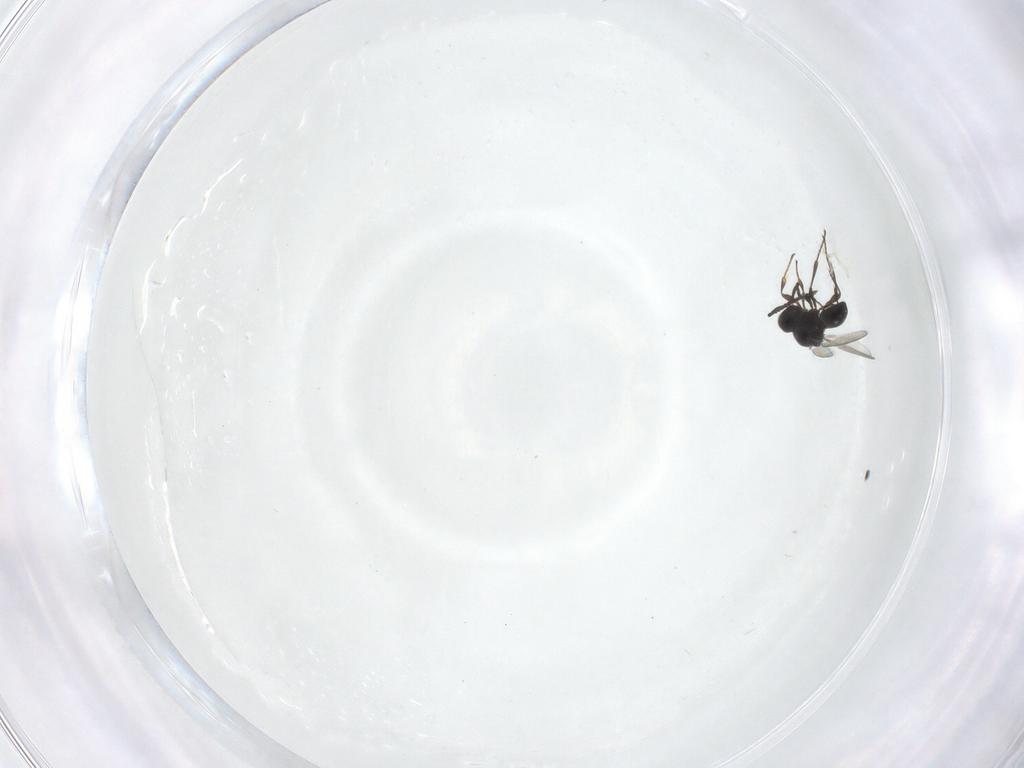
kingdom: Animalia
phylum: Arthropoda
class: Insecta
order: Hymenoptera
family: Platygastridae
